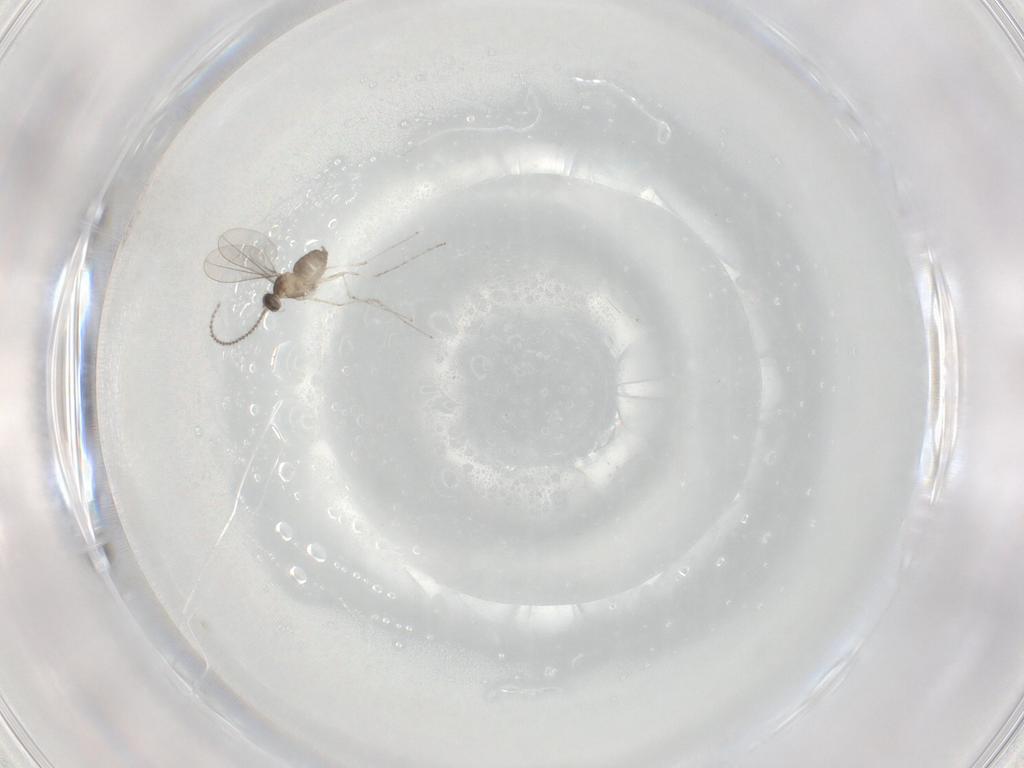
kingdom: Animalia
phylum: Arthropoda
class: Insecta
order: Diptera
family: Cecidomyiidae
